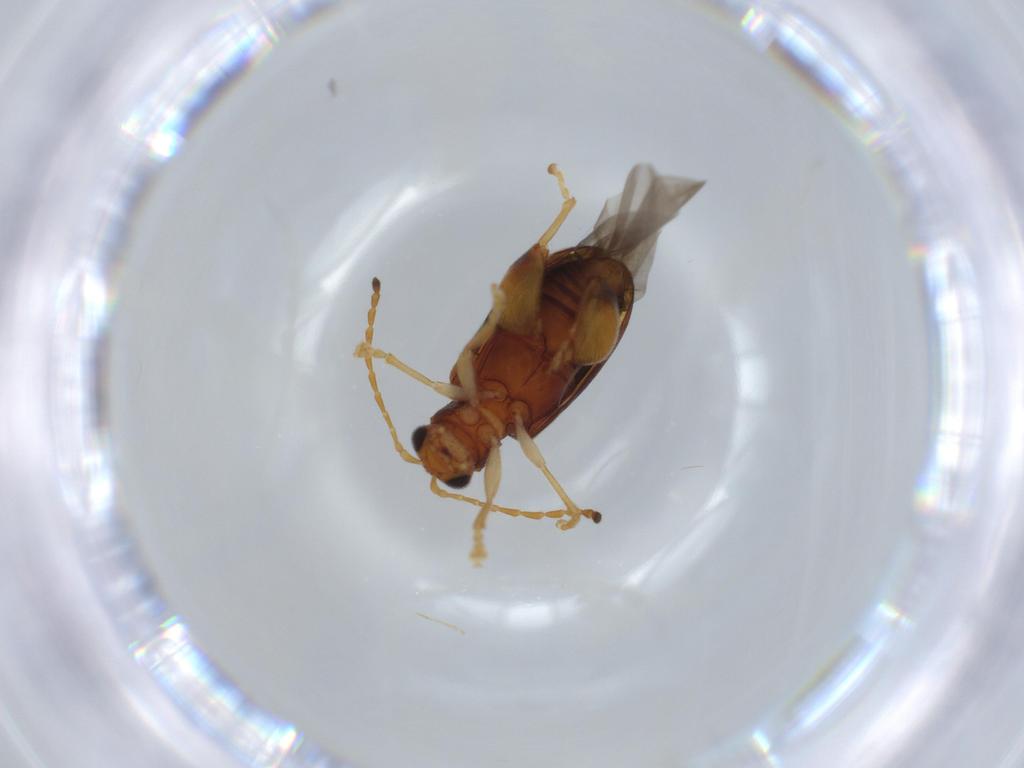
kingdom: Animalia
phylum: Arthropoda
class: Insecta
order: Coleoptera
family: Chrysomelidae
